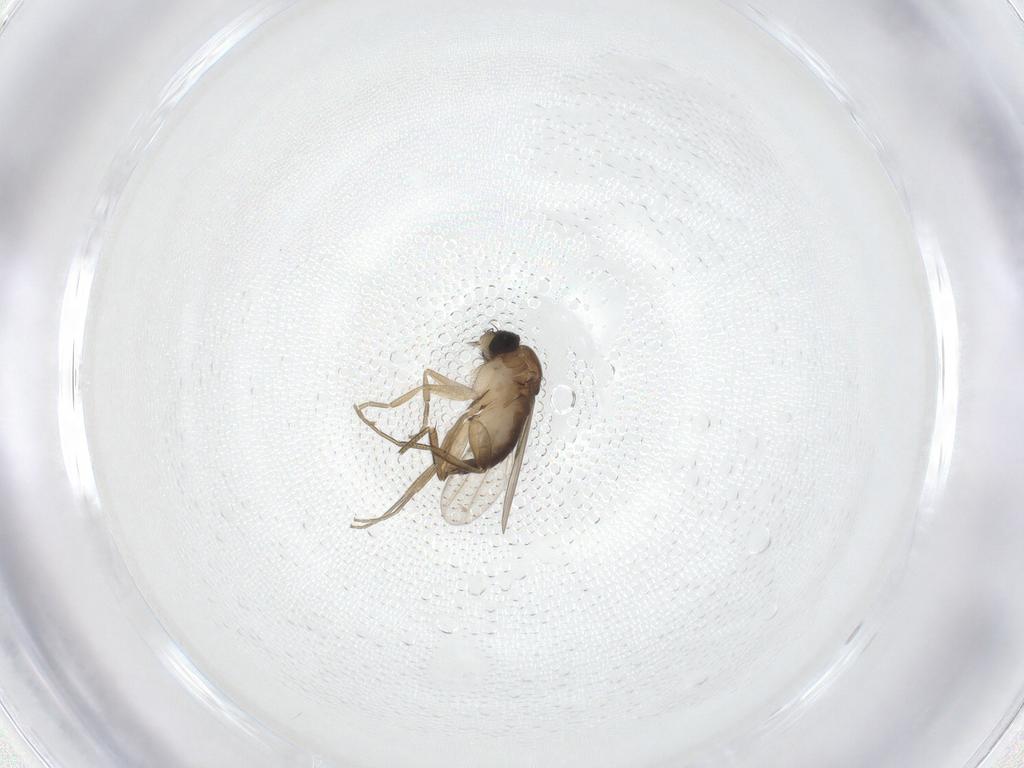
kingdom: Animalia
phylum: Arthropoda
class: Insecta
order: Diptera
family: Phoridae
